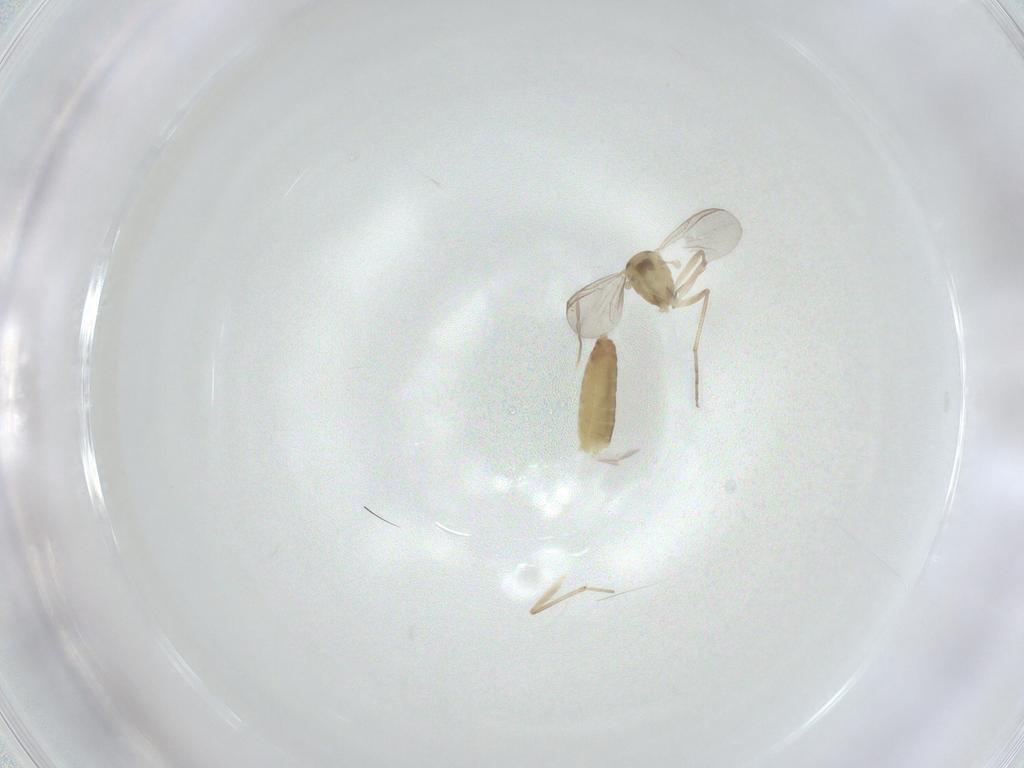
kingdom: Animalia
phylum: Arthropoda
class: Insecta
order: Diptera
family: Chironomidae
